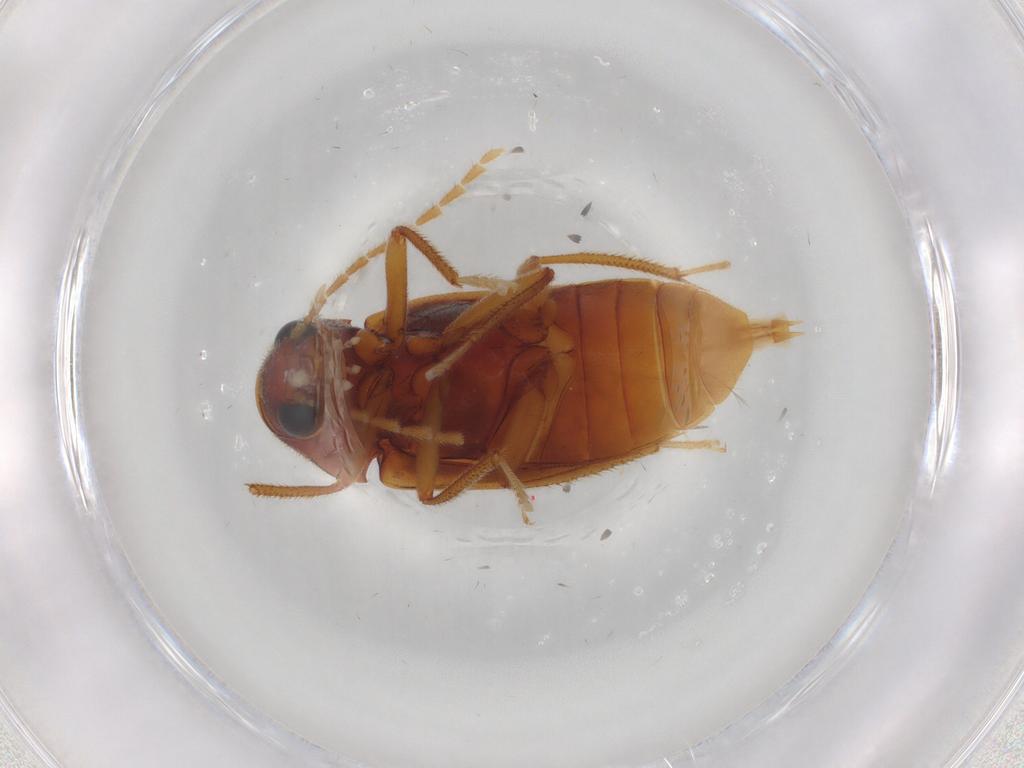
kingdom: Animalia
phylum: Arthropoda
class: Insecta
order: Coleoptera
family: Ptilodactylidae
